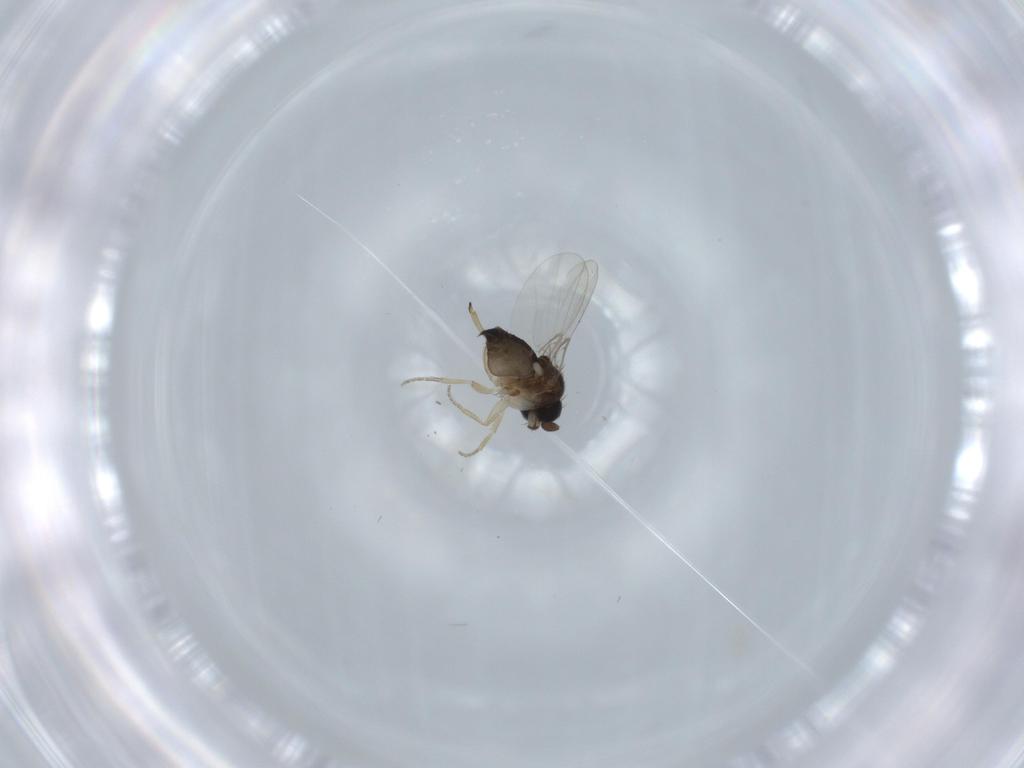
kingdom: Animalia
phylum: Arthropoda
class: Insecta
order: Diptera
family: Phoridae
